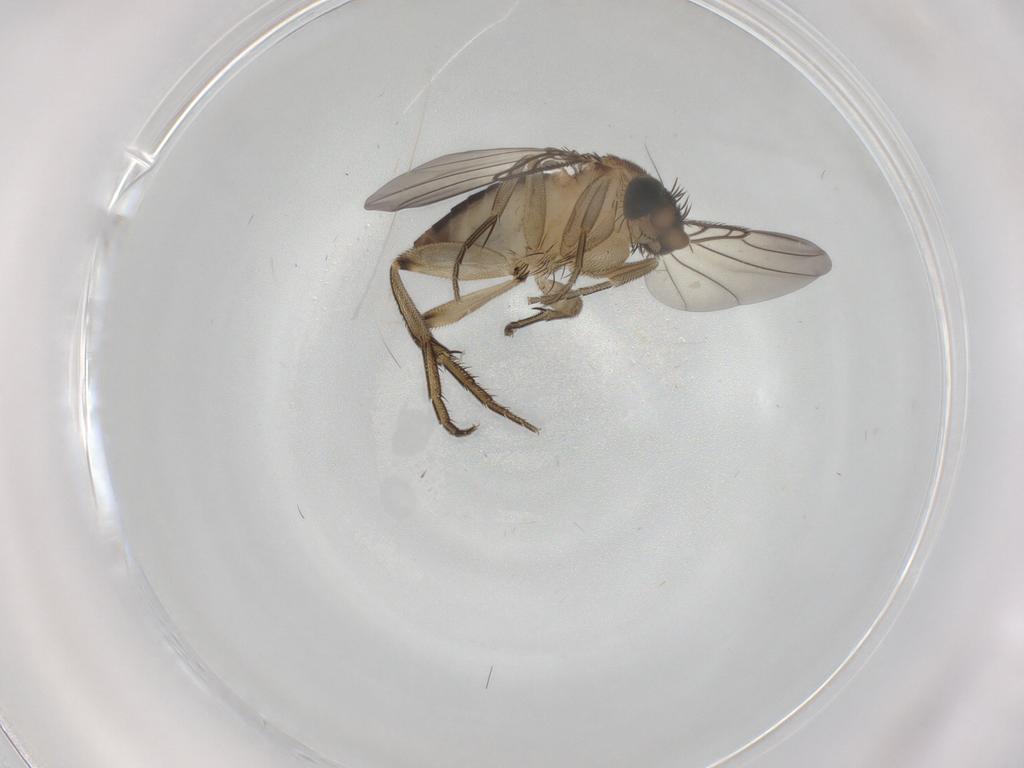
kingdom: Animalia
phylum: Arthropoda
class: Insecta
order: Diptera
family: Phoridae
